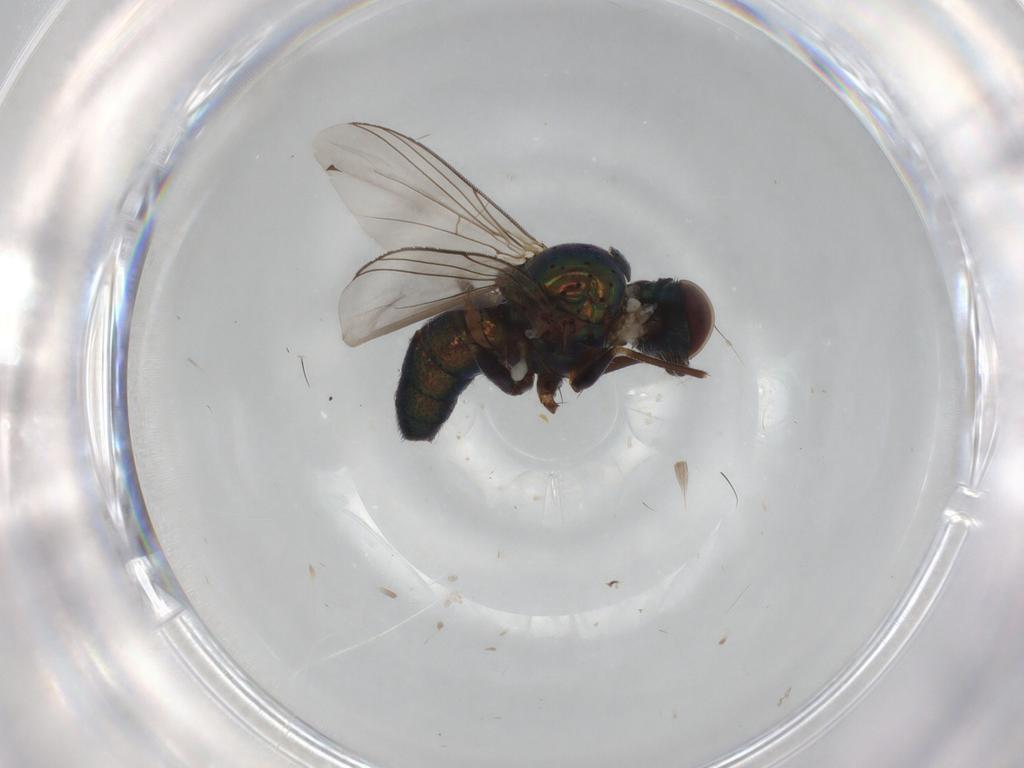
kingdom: Animalia
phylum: Arthropoda
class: Insecta
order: Diptera
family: Dolichopodidae
